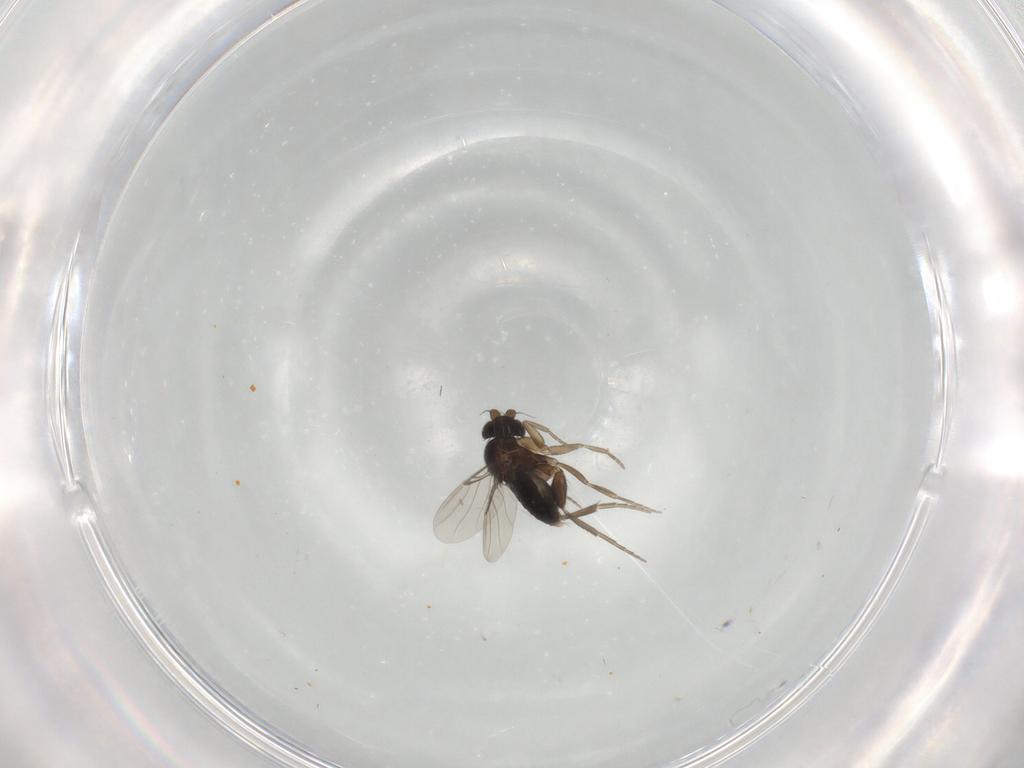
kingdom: Animalia
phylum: Arthropoda
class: Insecta
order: Diptera
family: Phoridae
